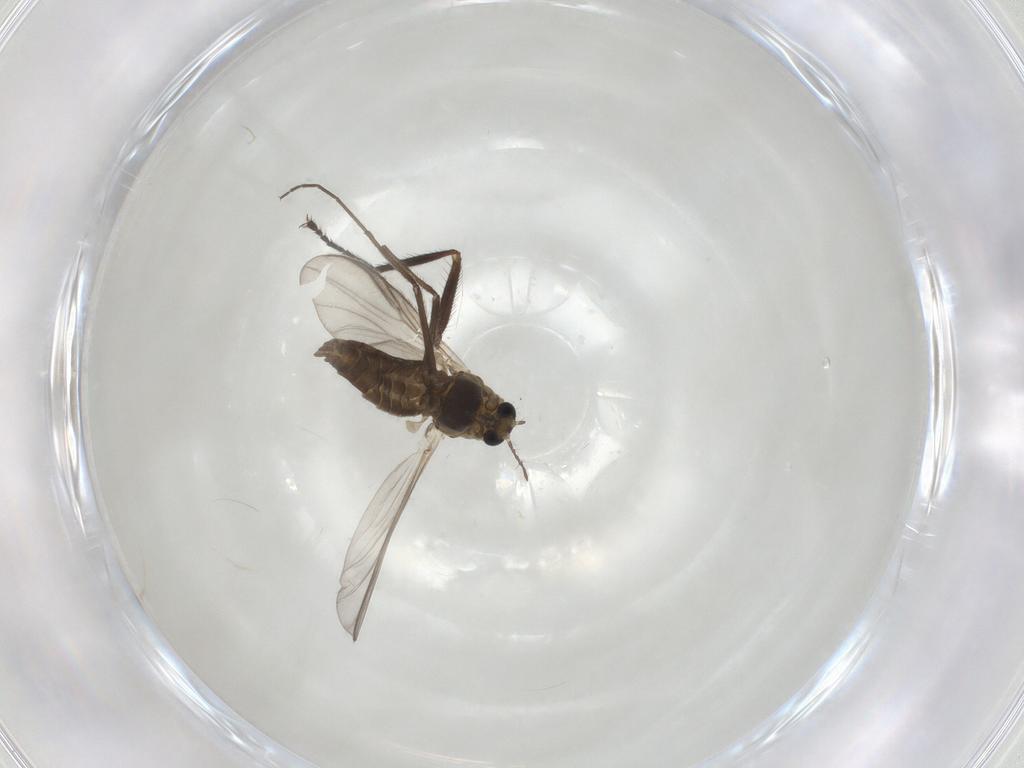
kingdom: Animalia
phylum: Arthropoda
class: Insecta
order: Diptera
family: Chironomidae
